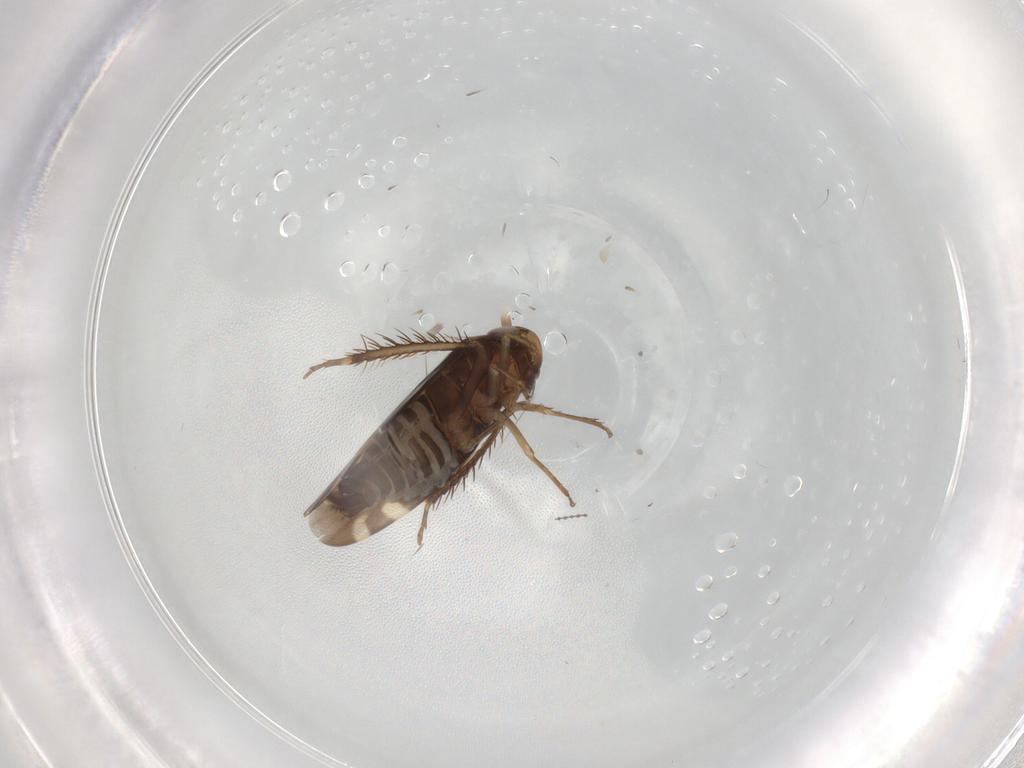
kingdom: Animalia
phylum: Arthropoda
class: Insecta
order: Hemiptera
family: Cicadellidae
